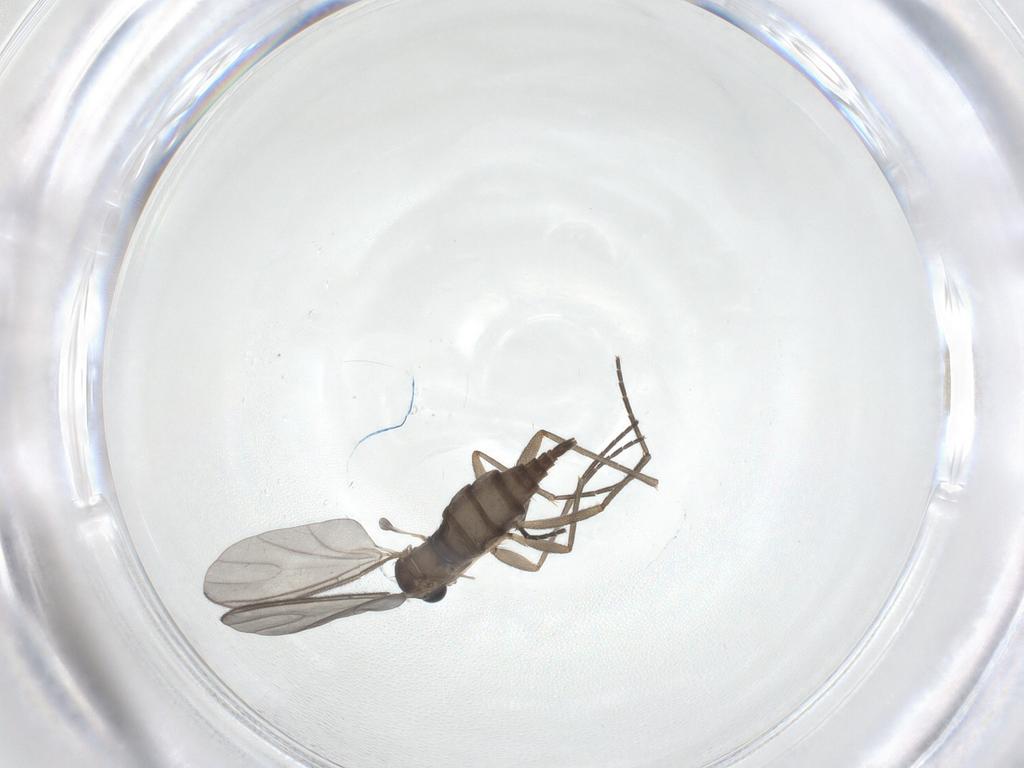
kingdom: Animalia
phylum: Arthropoda
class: Insecta
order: Diptera
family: Sciaridae
